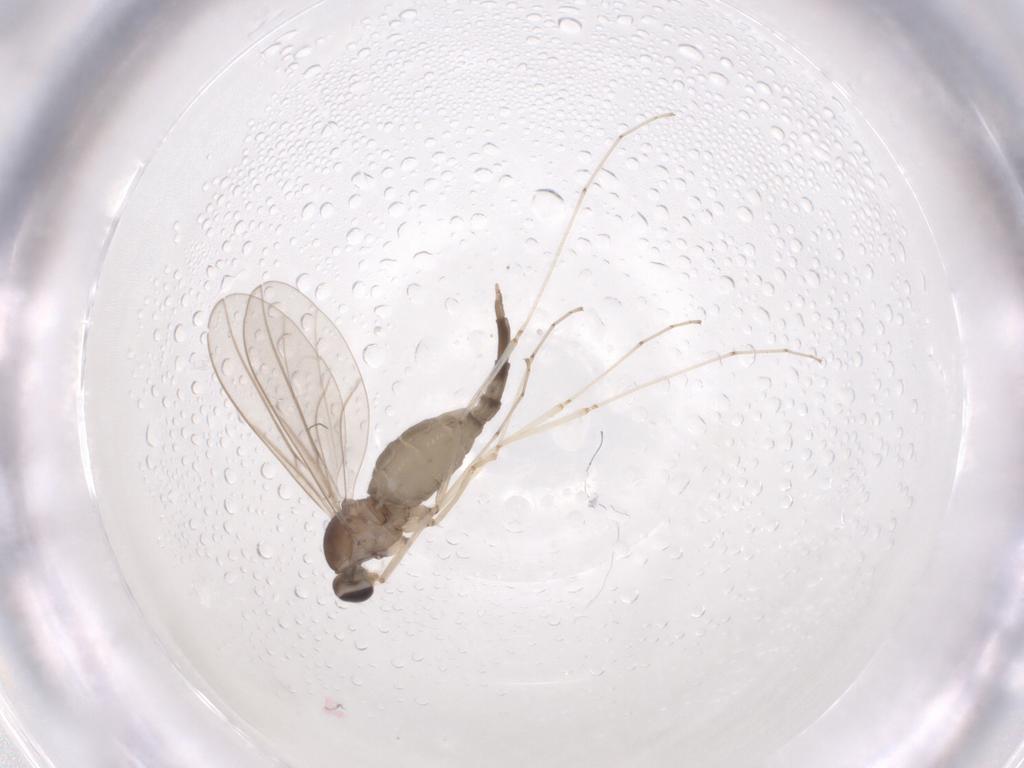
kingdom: Animalia
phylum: Arthropoda
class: Insecta
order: Diptera
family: Cecidomyiidae
